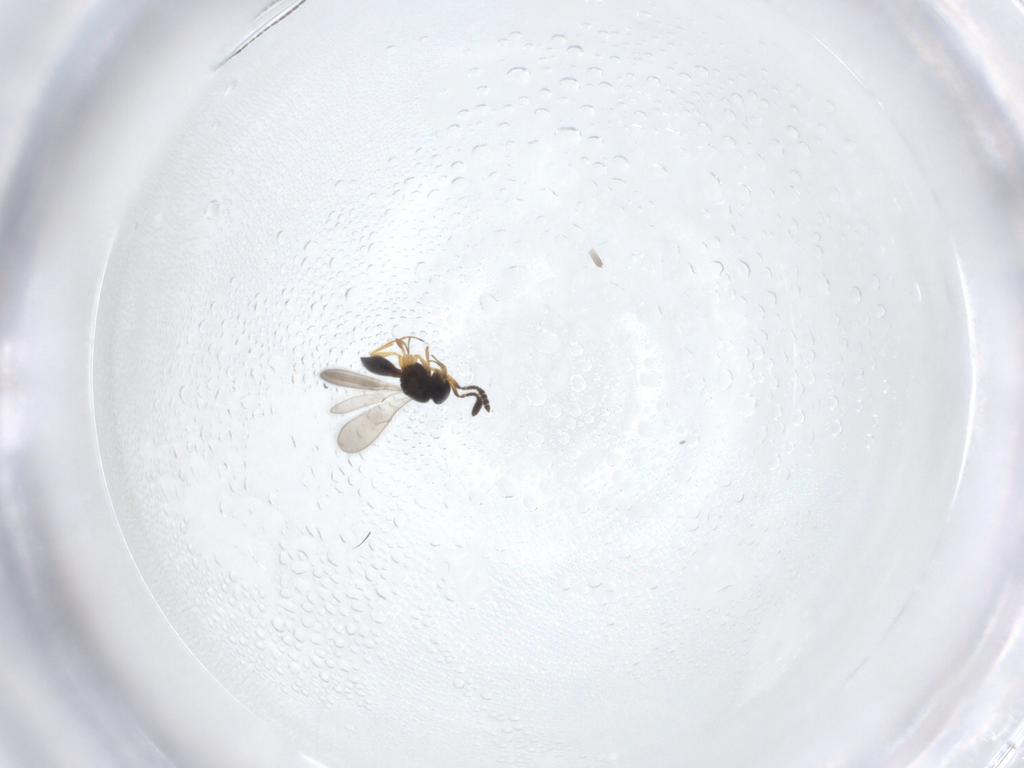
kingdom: Animalia
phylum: Arthropoda
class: Insecta
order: Hymenoptera
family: Scelionidae
